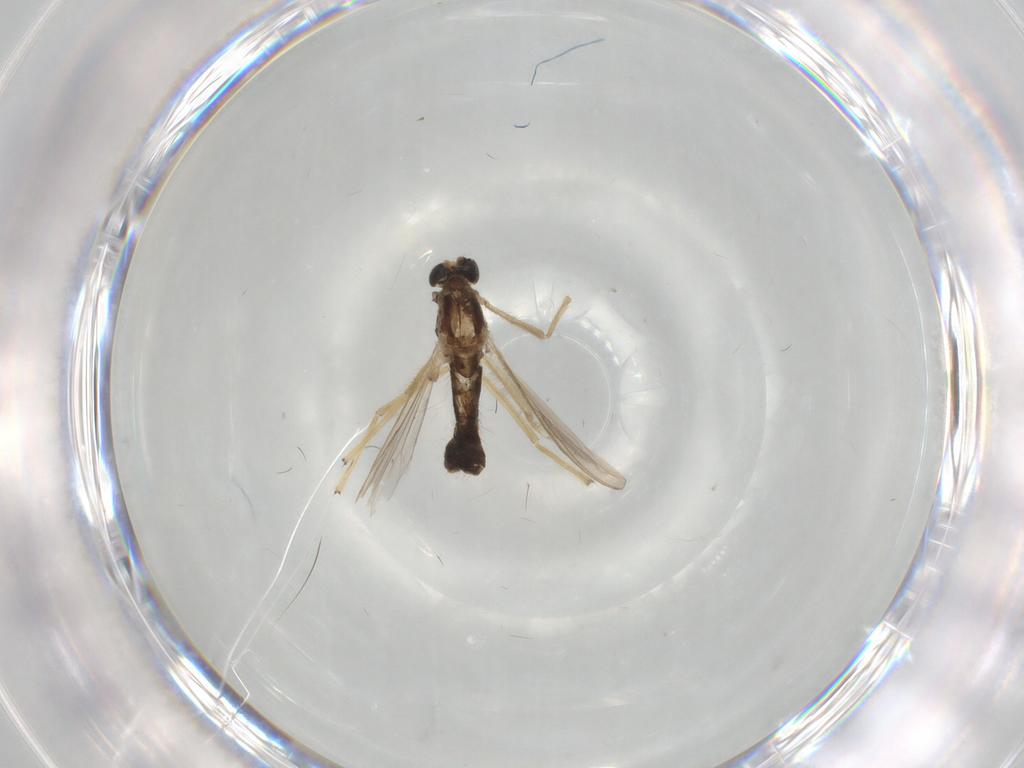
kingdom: Animalia
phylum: Arthropoda
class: Insecta
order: Diptera
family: Chironomidae
